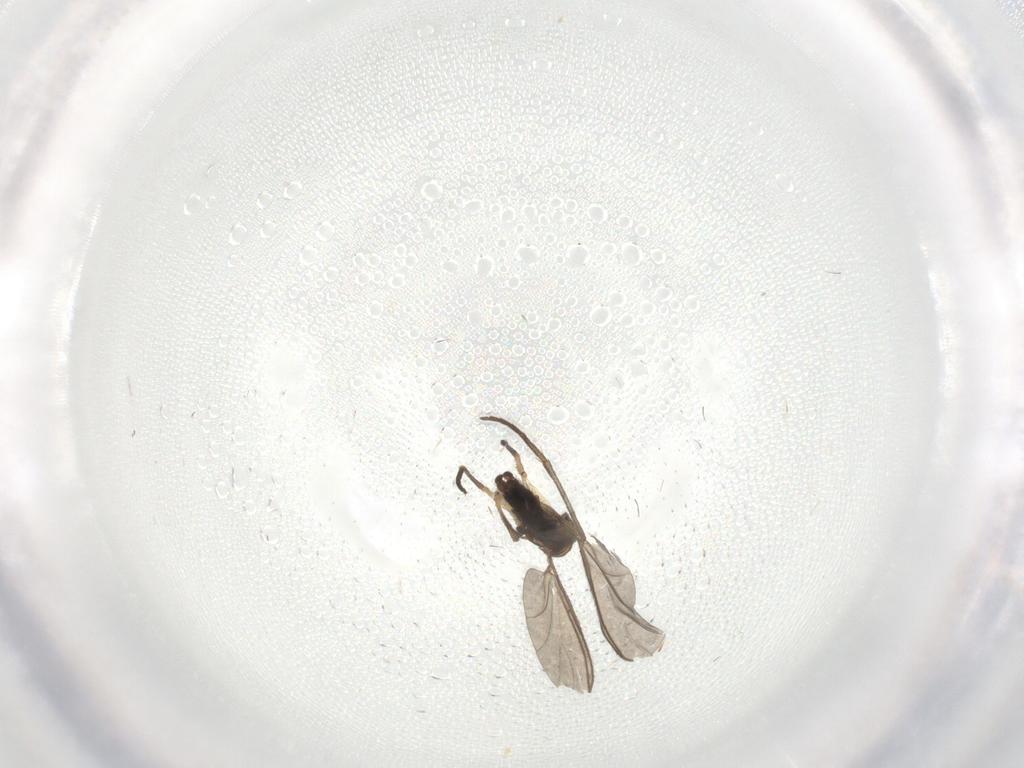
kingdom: Animalia
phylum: Arthropoda
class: Insecta
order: Diptera
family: Sciaridae
